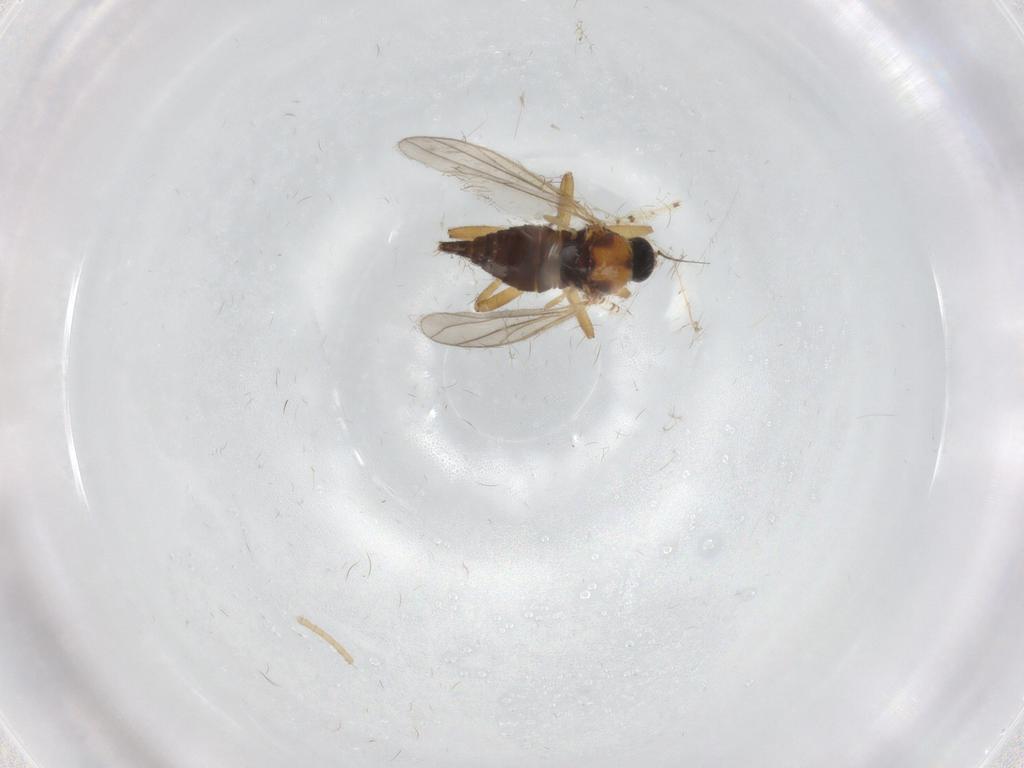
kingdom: Animalia
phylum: Arthropoda
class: Insecta
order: Diptera
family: Hybotidae
